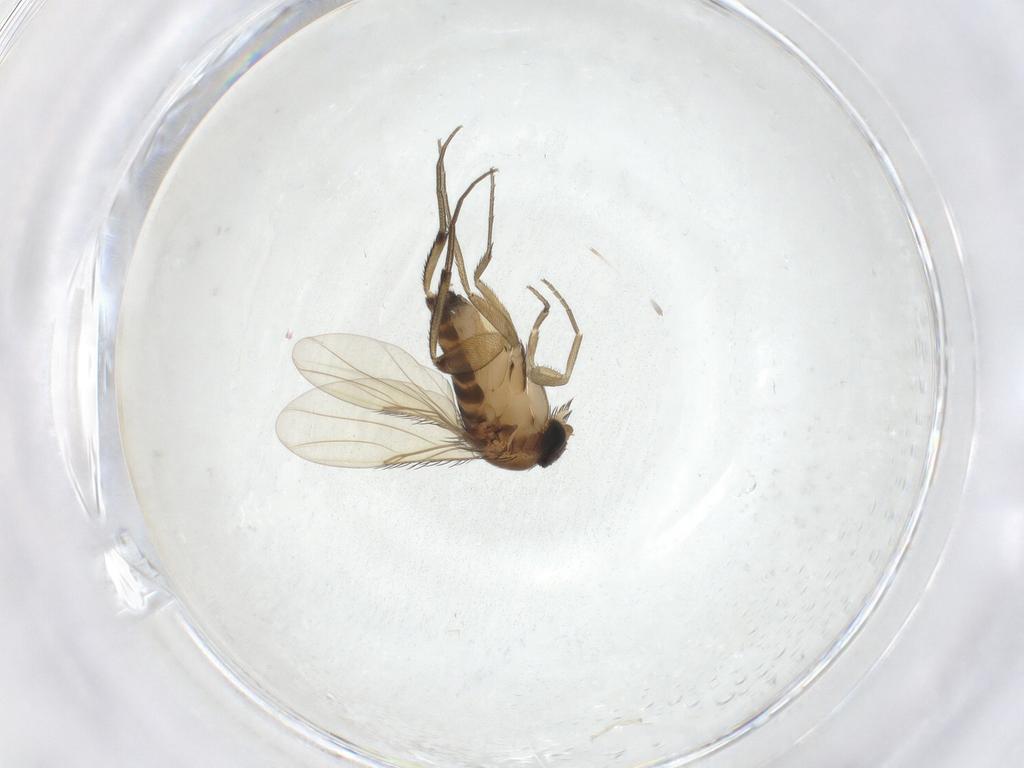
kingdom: Animalia
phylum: Arthropoda
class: Insecta
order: Diptera
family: Phoridae
